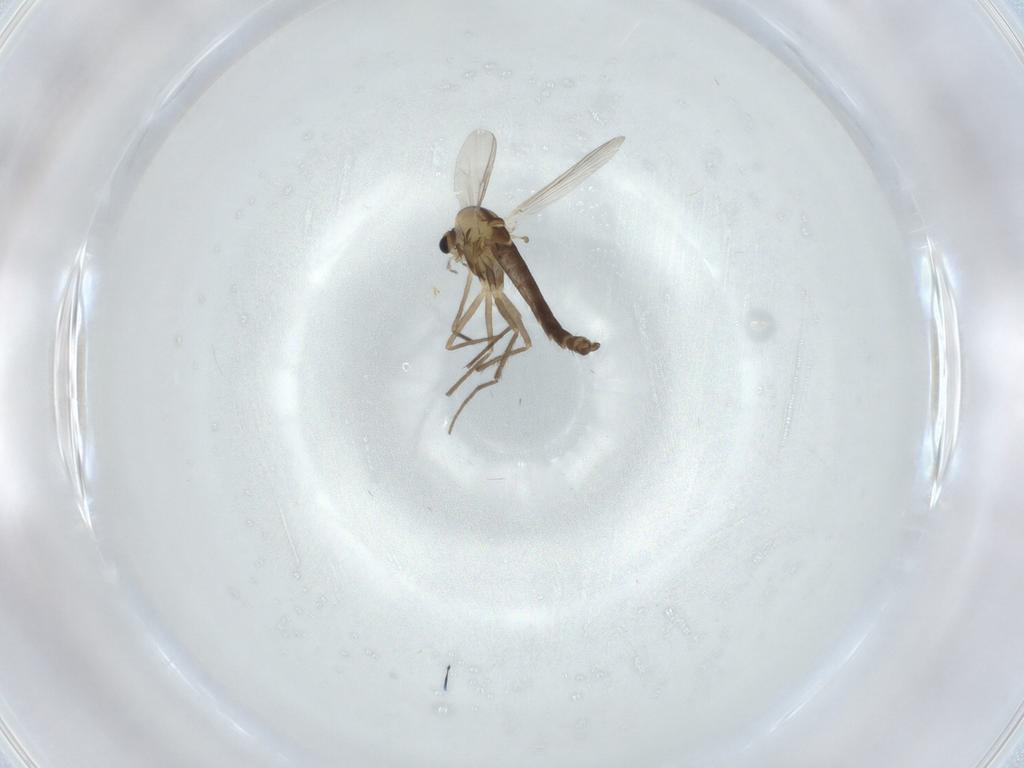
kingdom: Animalia
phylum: Arthropoda
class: Insecta
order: Diptera
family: Chironomidae
